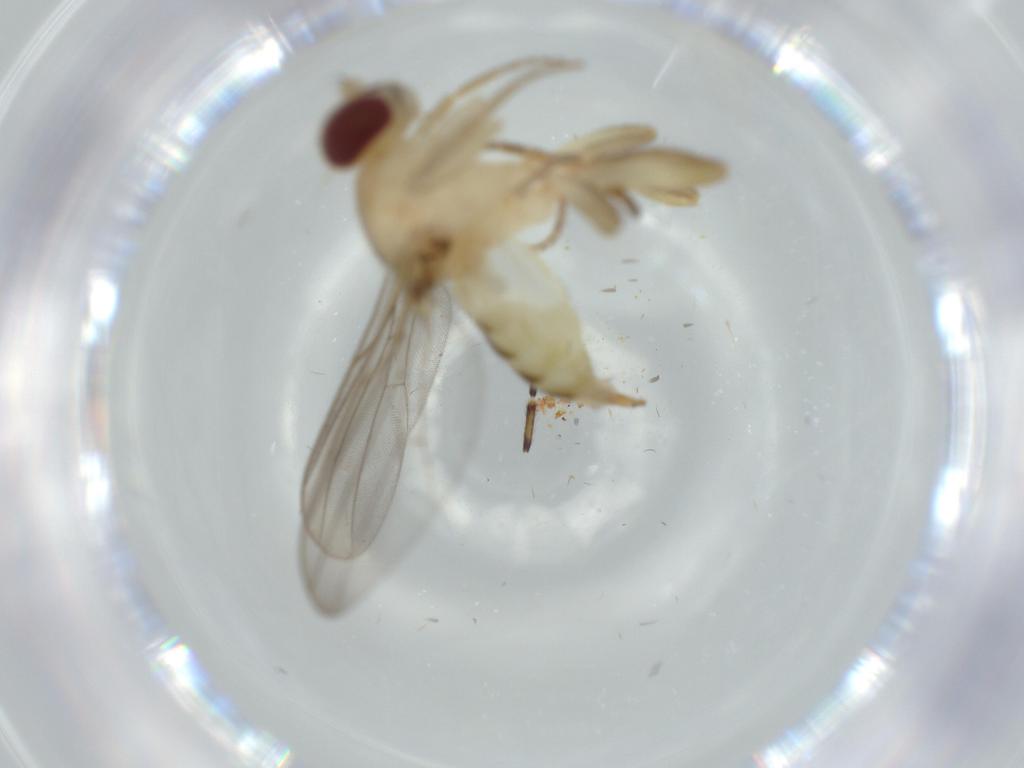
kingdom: Animalia
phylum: Arthropoda
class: Insecta
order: Diptera
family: Chloropidae
